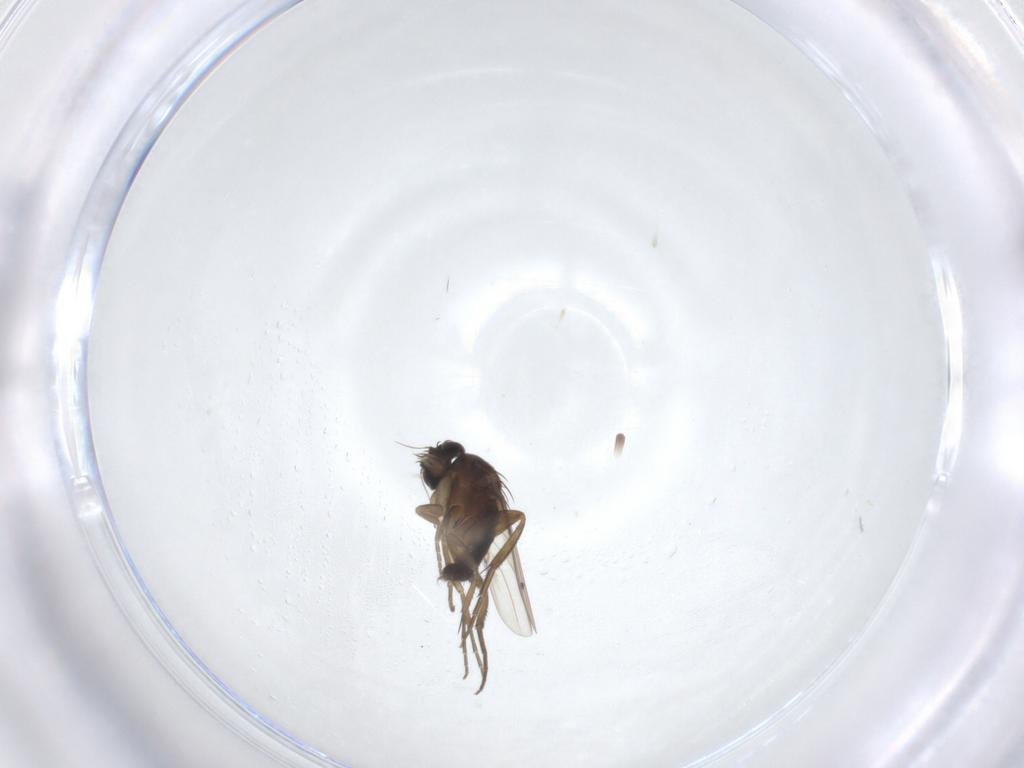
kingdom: Animalia
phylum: Arthropoda
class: Insecta
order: Diptera
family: Phoridae
